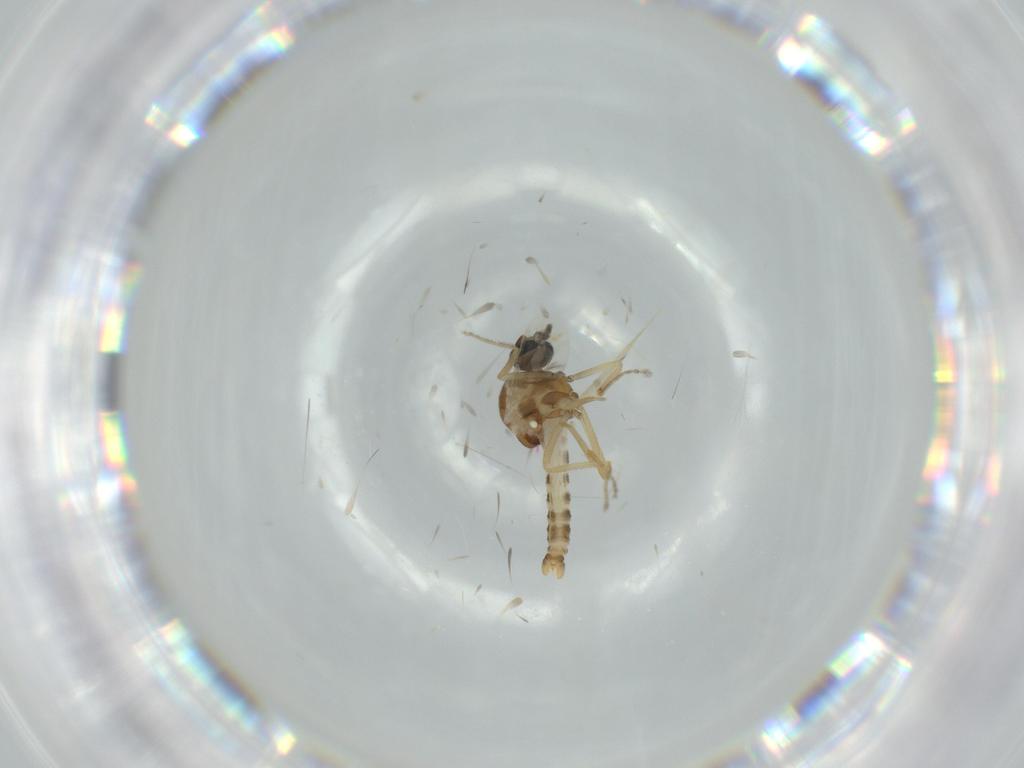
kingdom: Animalia
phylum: Arthropoda
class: Insecta
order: Diptera
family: Ceratopogonidae
